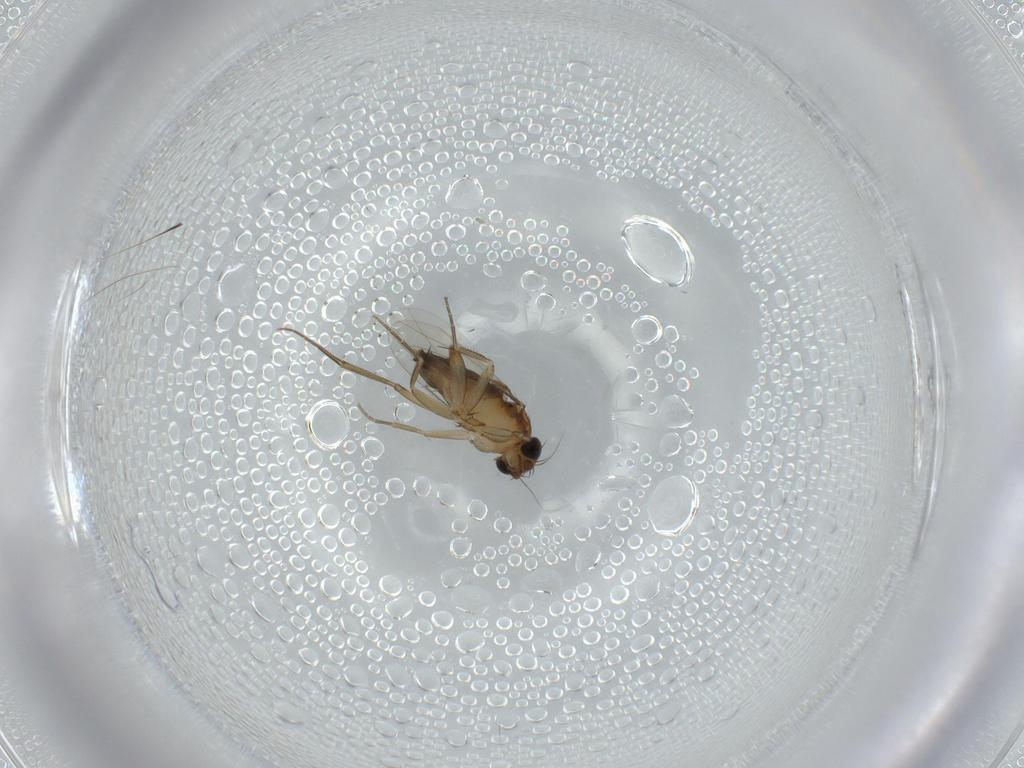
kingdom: Animalia
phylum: Arthropoda
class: Insecta
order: Diptera
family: Phoridae
